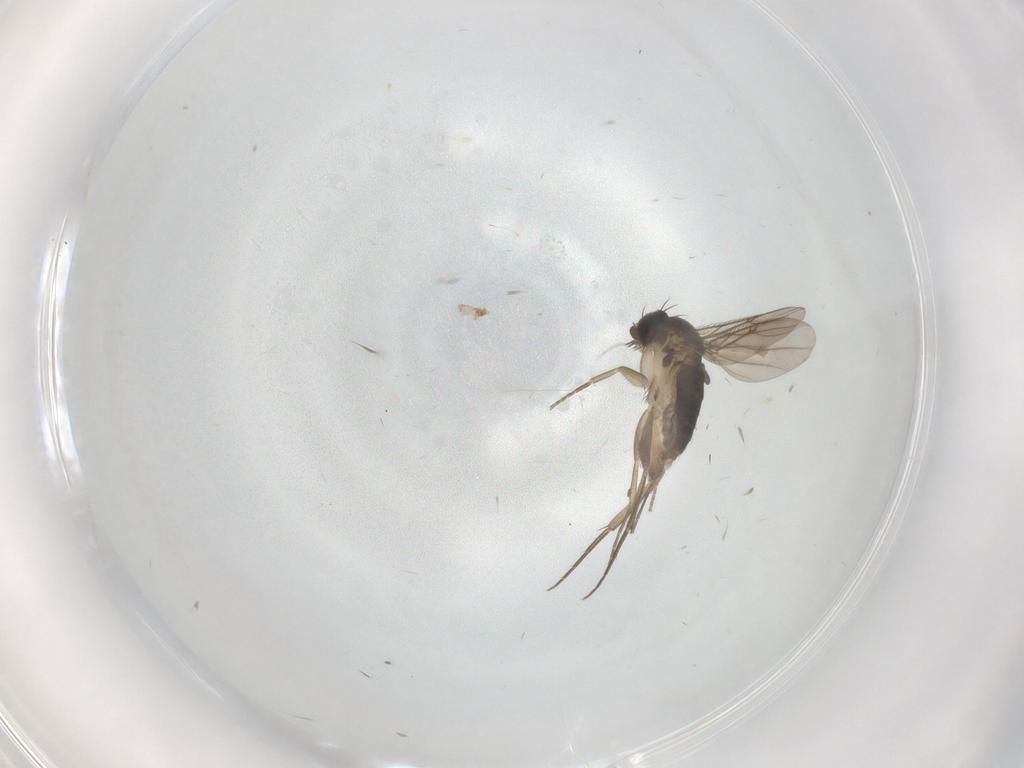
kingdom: Animalia
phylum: Arthropoda
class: Insecta
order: Diptera
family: Phoridae
